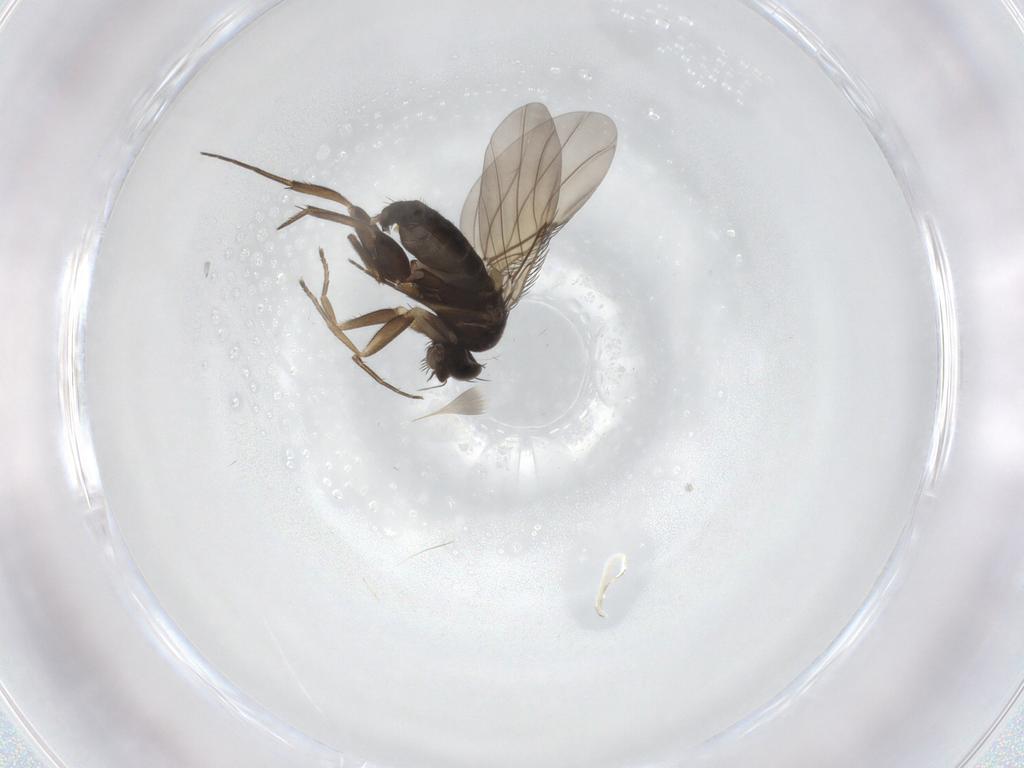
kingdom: Animalia
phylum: Arthropoda
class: Insecta
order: Diptera
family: Phoridae
